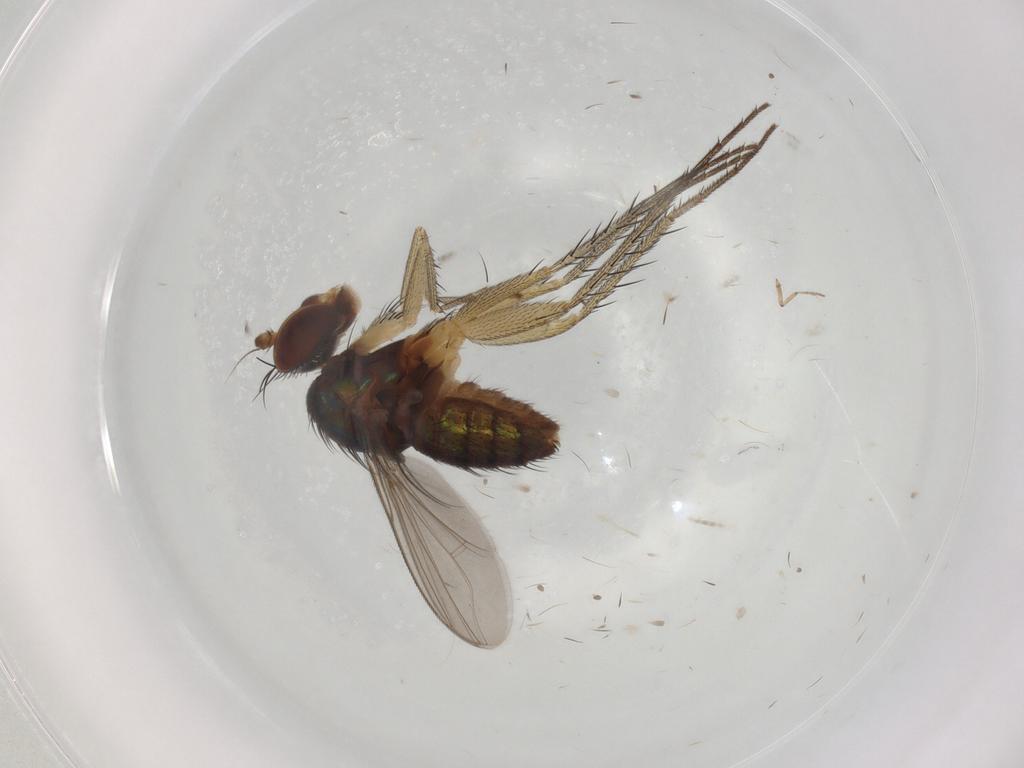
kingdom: Animalia
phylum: Arthropoda
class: Insecta
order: Diptera
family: Dolichopodidae
